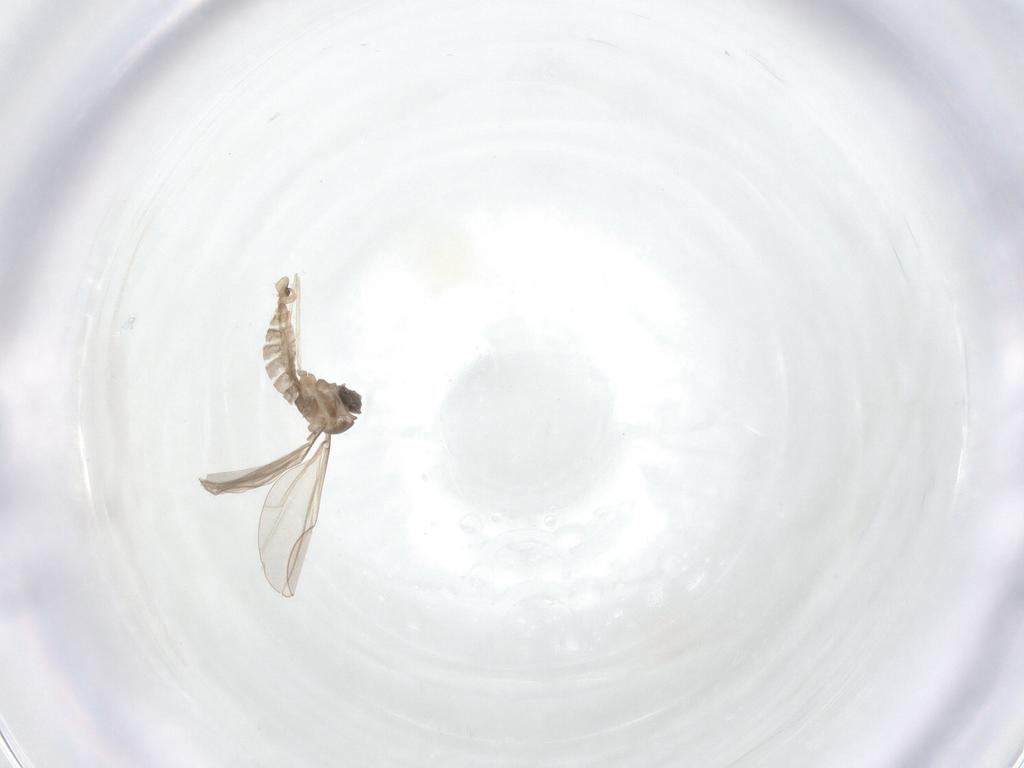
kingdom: Animalia
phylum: Arthropoda
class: Insecta
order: Diptera
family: Cecidomyiidae
